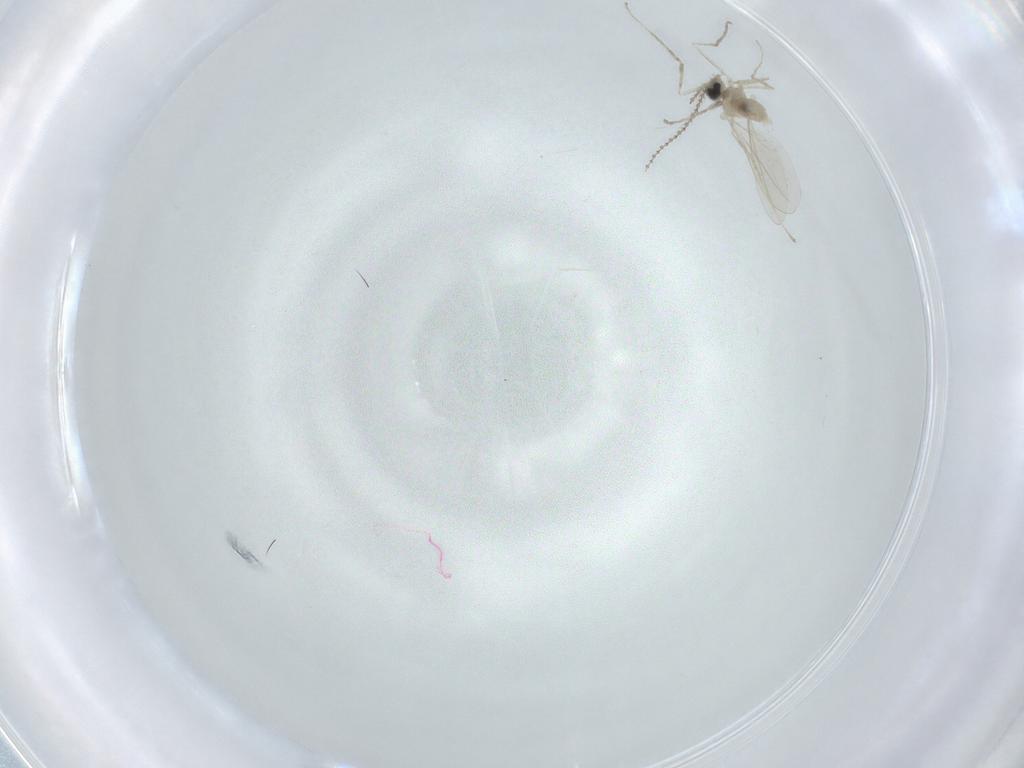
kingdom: Animalia
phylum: Arthropoda
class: Insecta
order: Diptera
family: Cecidomyiidae
